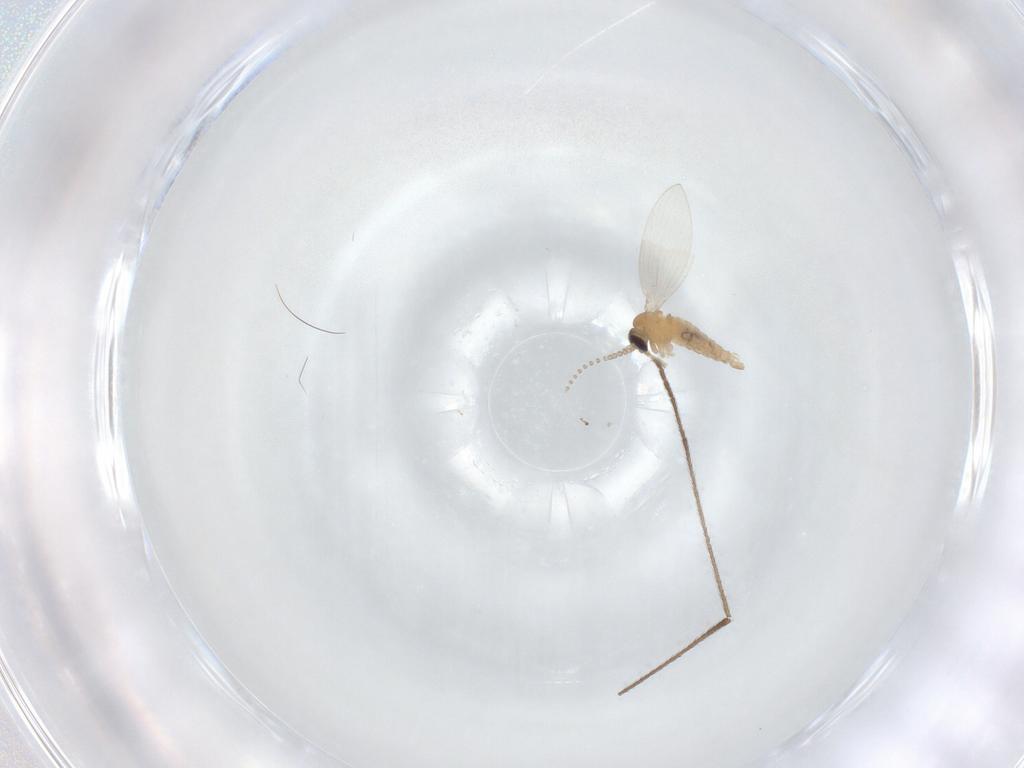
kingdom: Animalia
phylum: Arthropoda
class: Insecta
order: Diptera
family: Psychodidae
